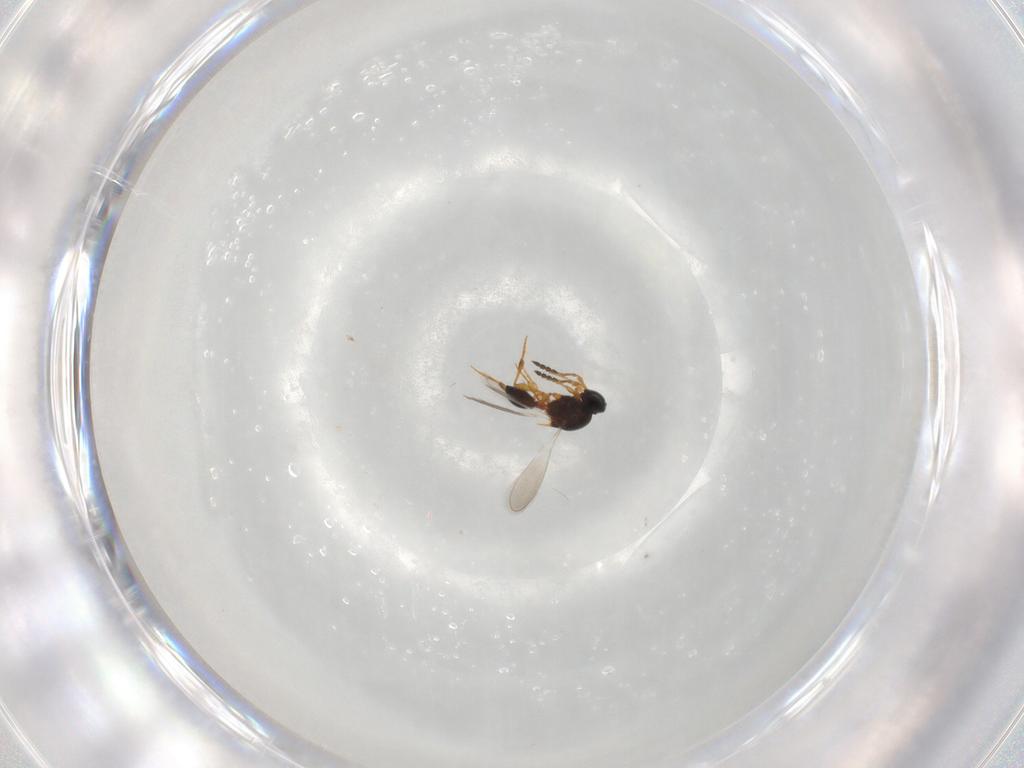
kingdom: Animalia
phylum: Arthropoda
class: Insecta
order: Hymenoptera
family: Platygastridae
